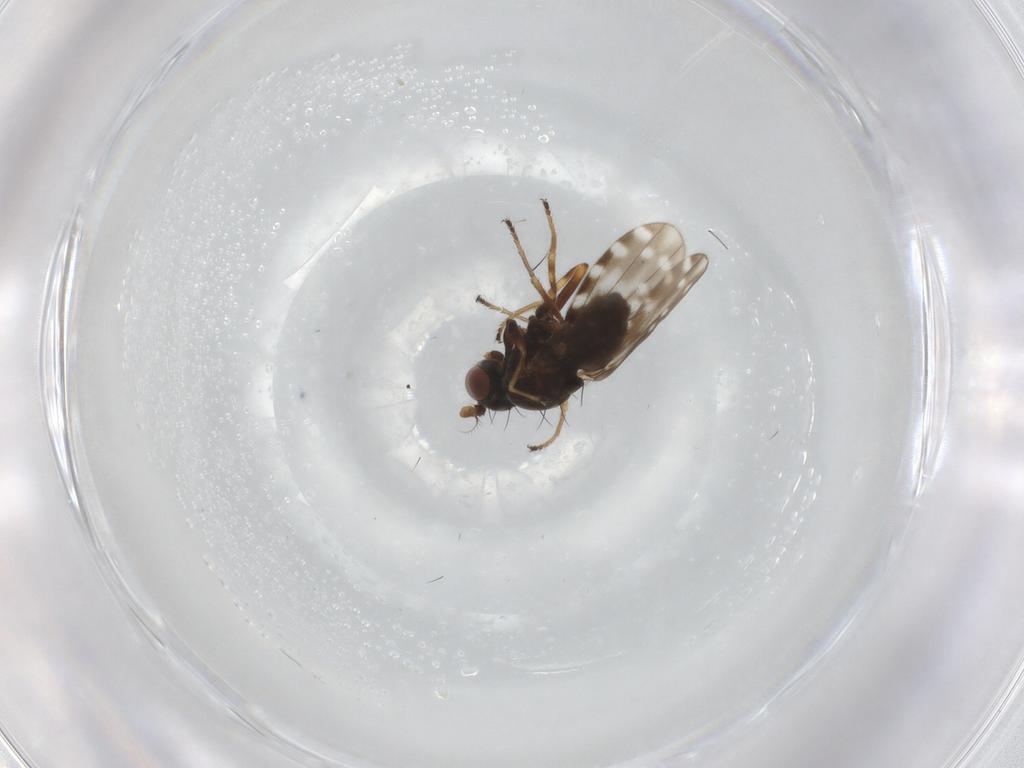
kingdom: Animalia
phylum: Arthropoda
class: Insecta
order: Diptera
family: Ephydridae
